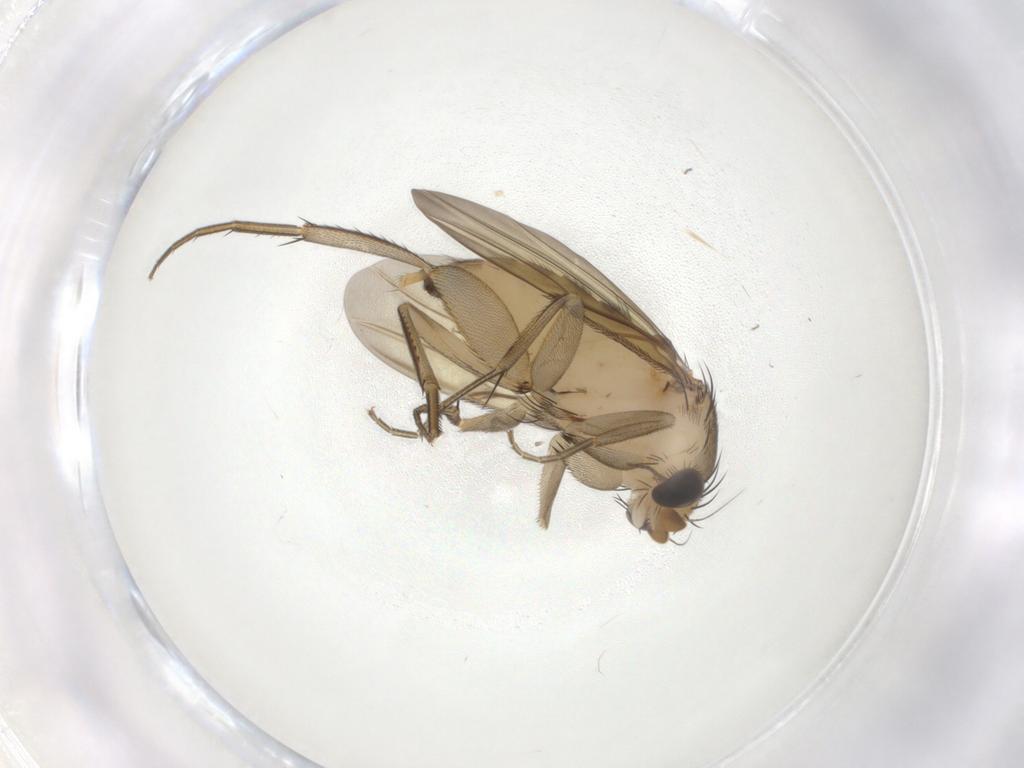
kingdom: Animalia
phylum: Arthropoda
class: Insecta
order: Diptera
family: Phoridae
